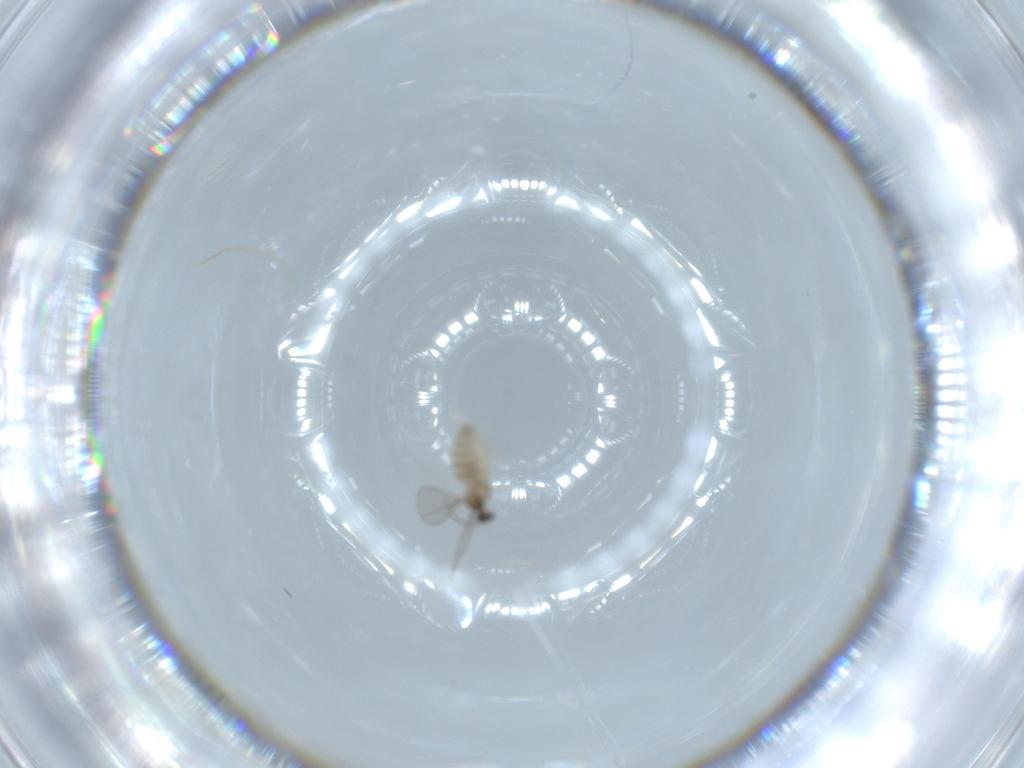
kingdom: Animalia
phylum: Arthropoda
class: Insecta
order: Diptera
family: Cecidomyiidae
